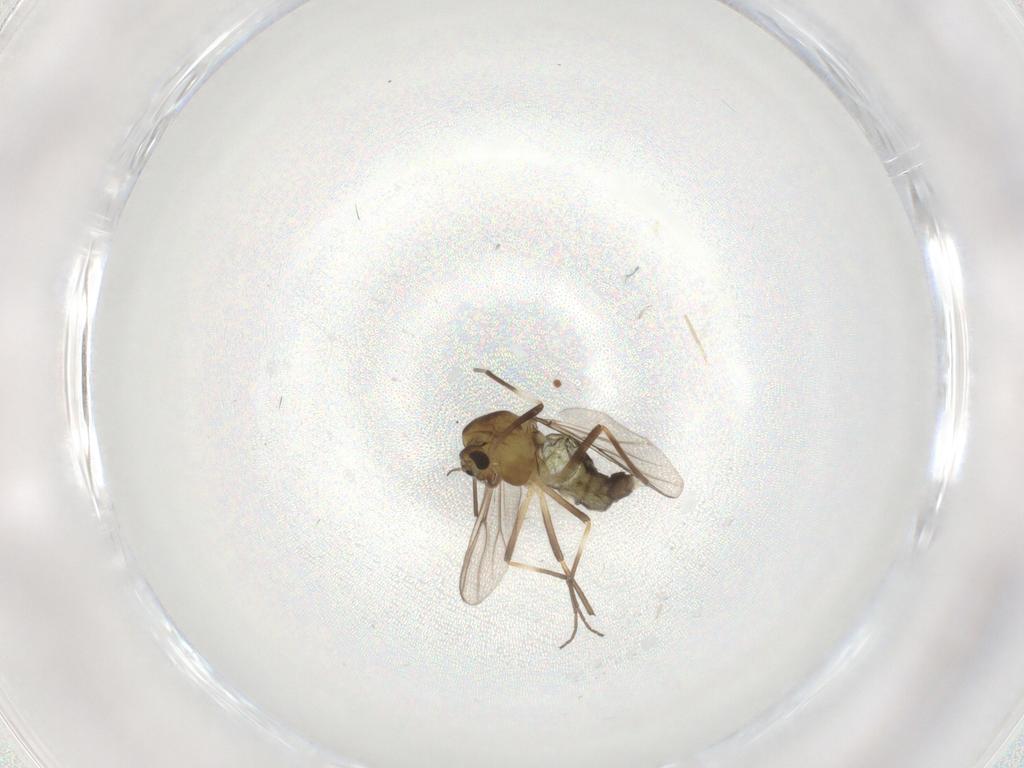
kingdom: Animalia
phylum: Arthropoda
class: Insecta
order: Diptera
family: Chironomidae
